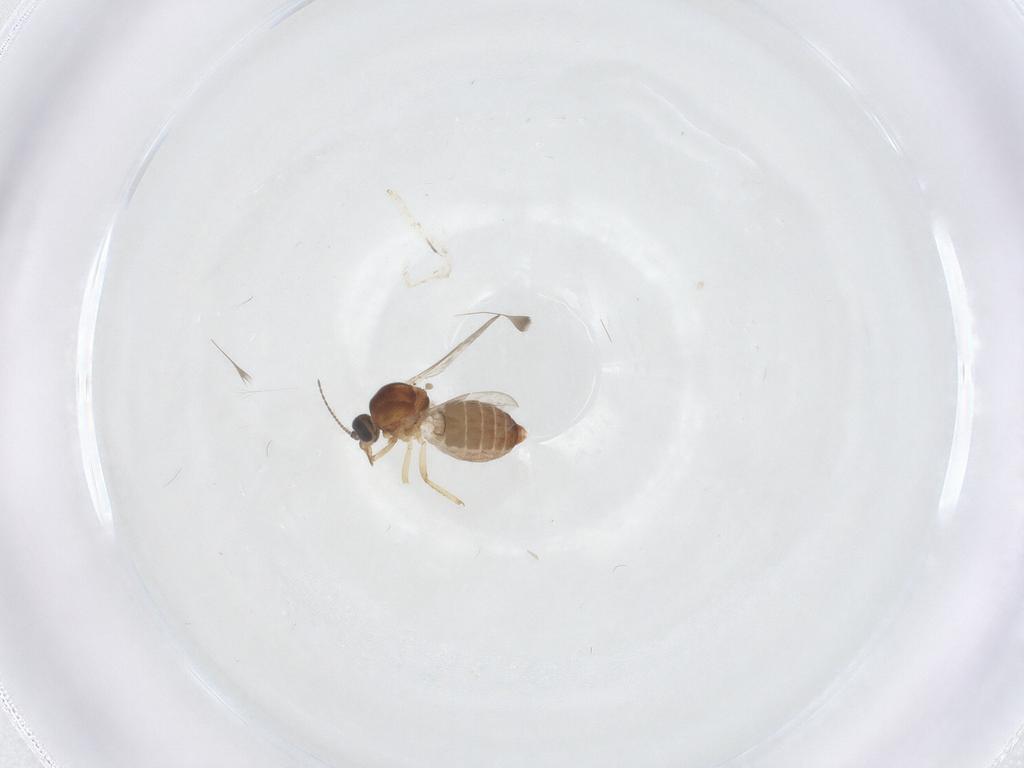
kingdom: Animalia
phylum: Arthropoda
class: Insecta
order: Diptera
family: Ceratopogonidae
